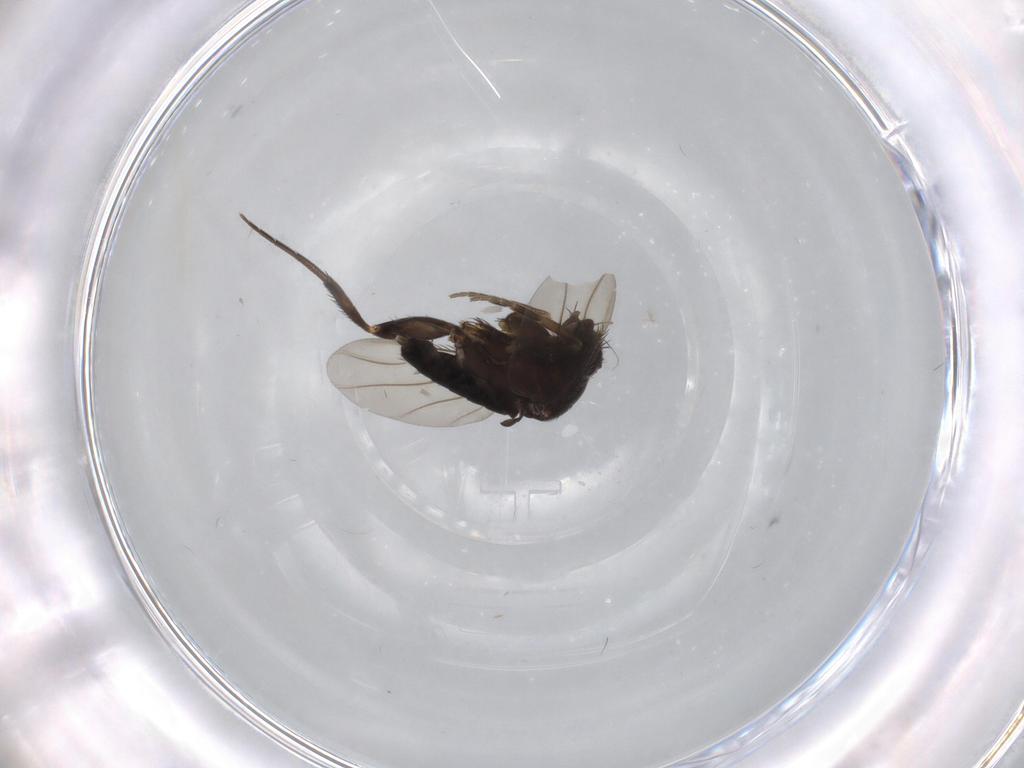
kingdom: Animalia
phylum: Arthropoda
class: Insecta
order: Diptera
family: Phoridae
